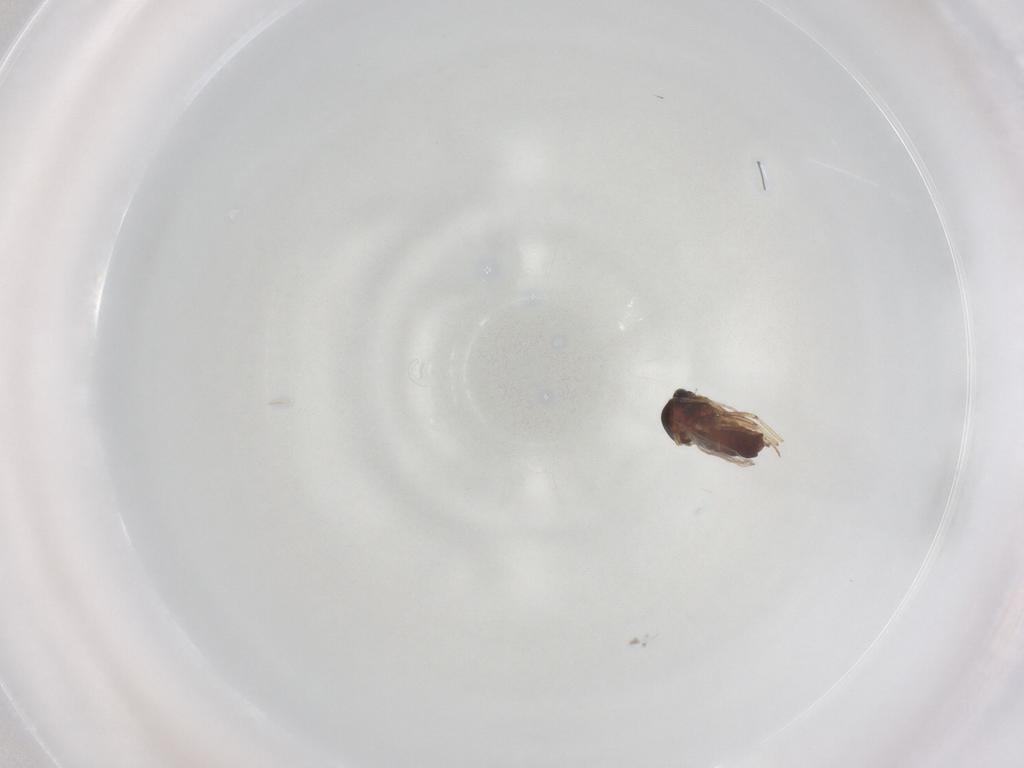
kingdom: Animalia
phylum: Arthropoda
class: Insecta
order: Diptera
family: Ceratopogonidae
